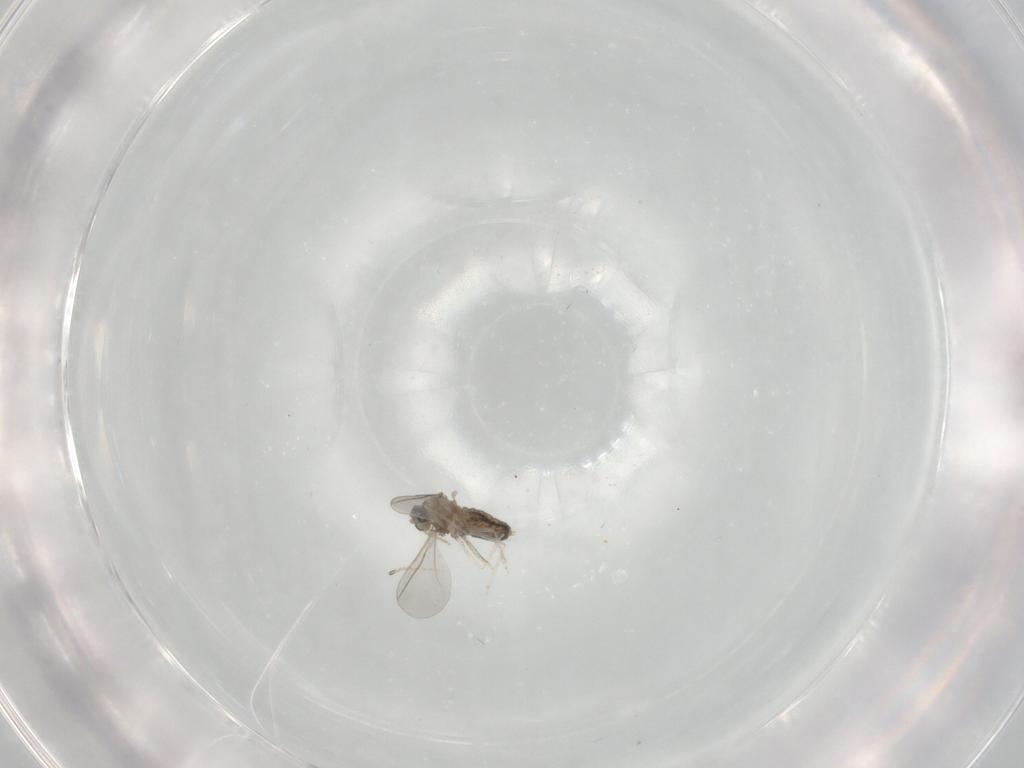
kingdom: Animalia
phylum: Arthropoda
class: Insecta
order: Diptera
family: Cecidomyiidae
